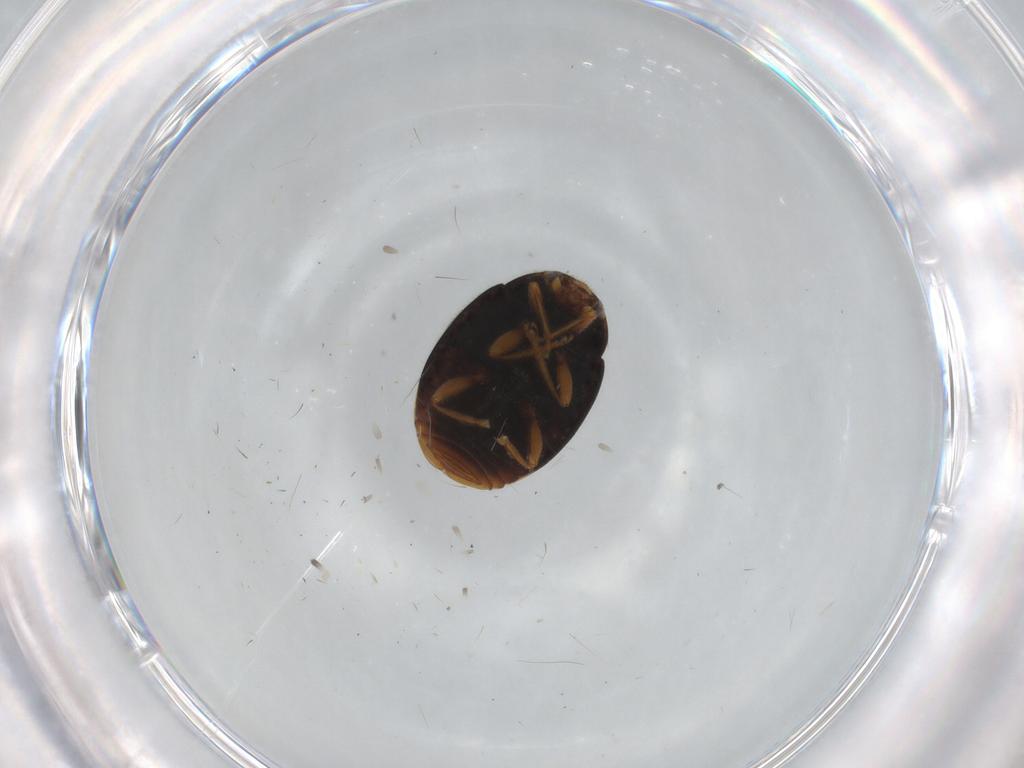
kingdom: Animalia
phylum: Arthropoda
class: Insecta
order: Coleoptera
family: Coccinellidae
